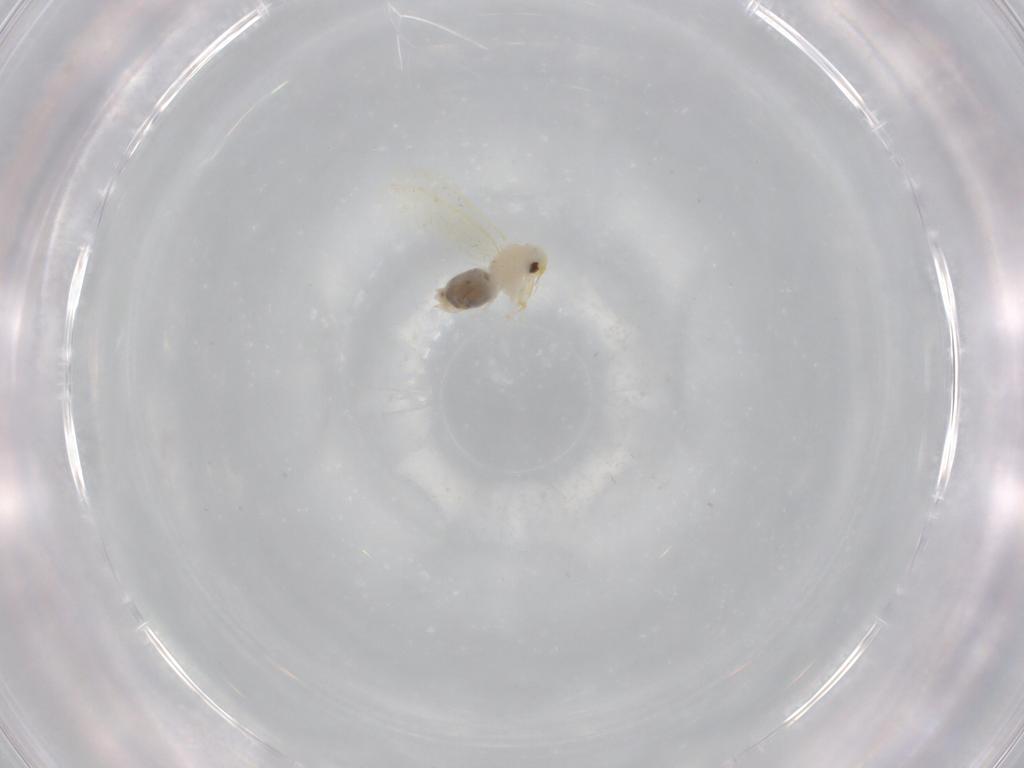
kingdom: Animalia
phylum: Arthropoda
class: Insecta
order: Hemiptera
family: Aleyrodidae
